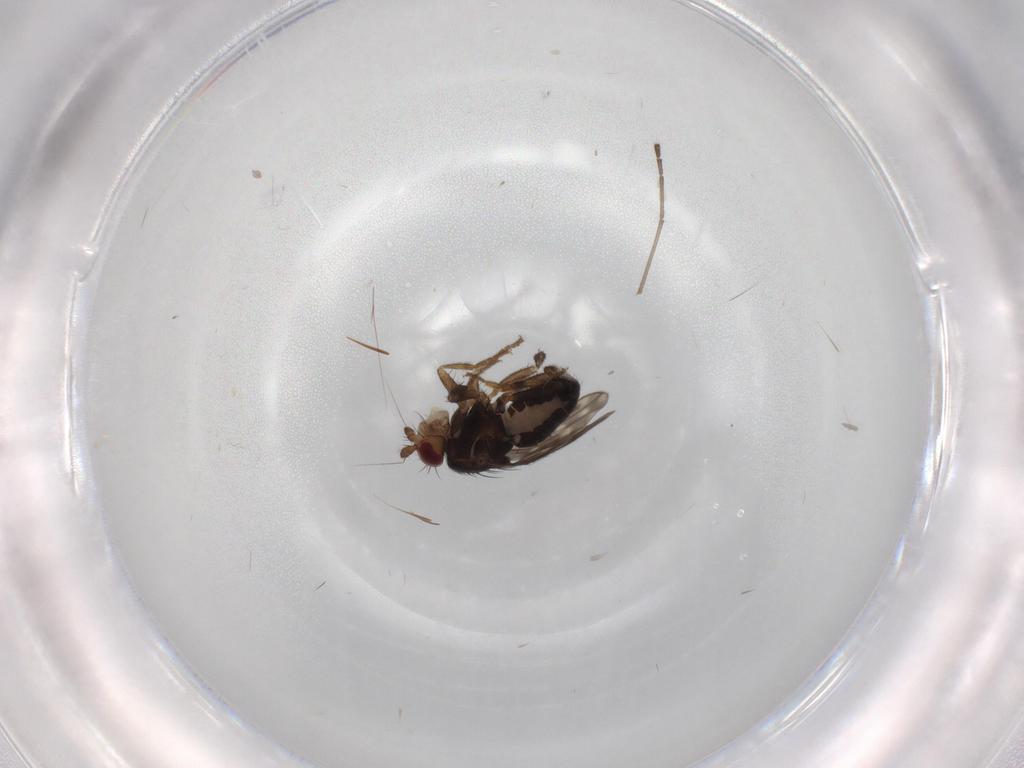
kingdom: Animalia
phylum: Arthropoda
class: Insecta
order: Diptera
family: Sphaeroceridae
